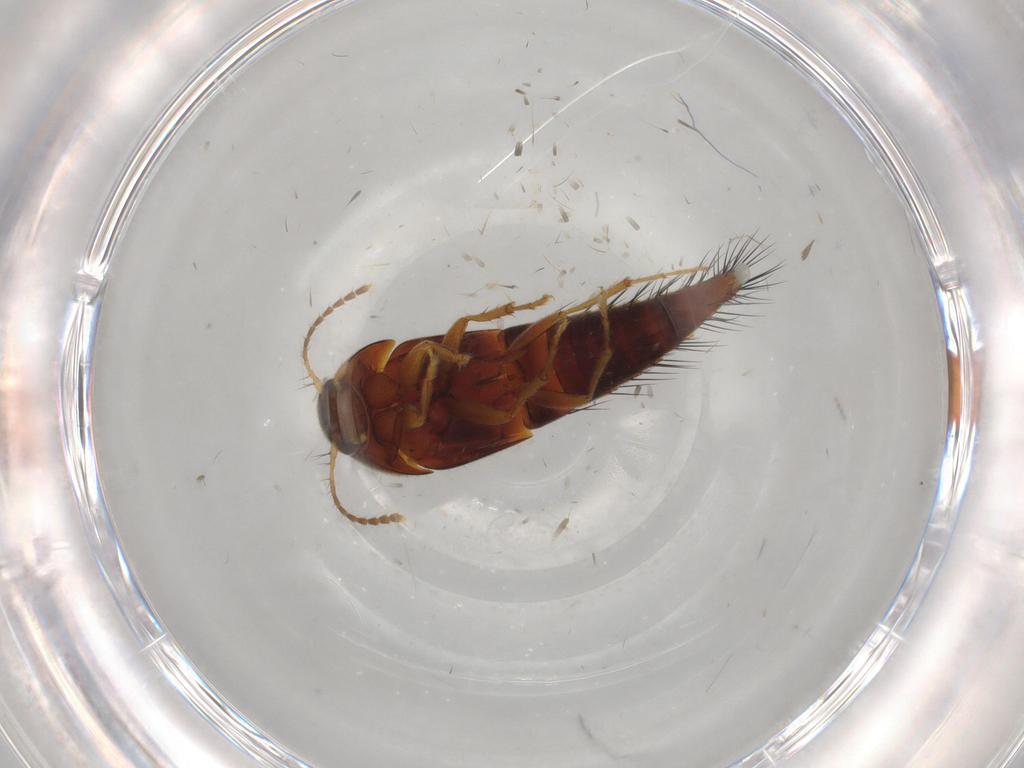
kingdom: Animalia
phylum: Arthropoda
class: Insecta
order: Coleoptera
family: Staphylinidae
